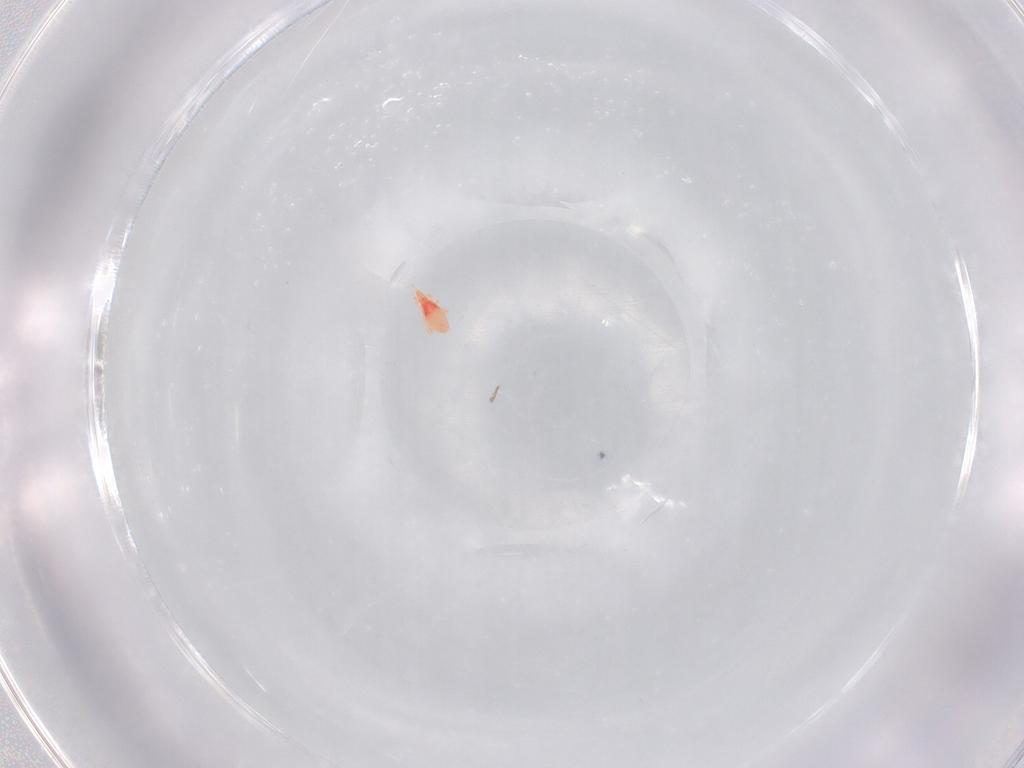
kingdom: Animalia
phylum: Arthropoda
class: Arachnida
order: Trombidiformes
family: Bdellidae
